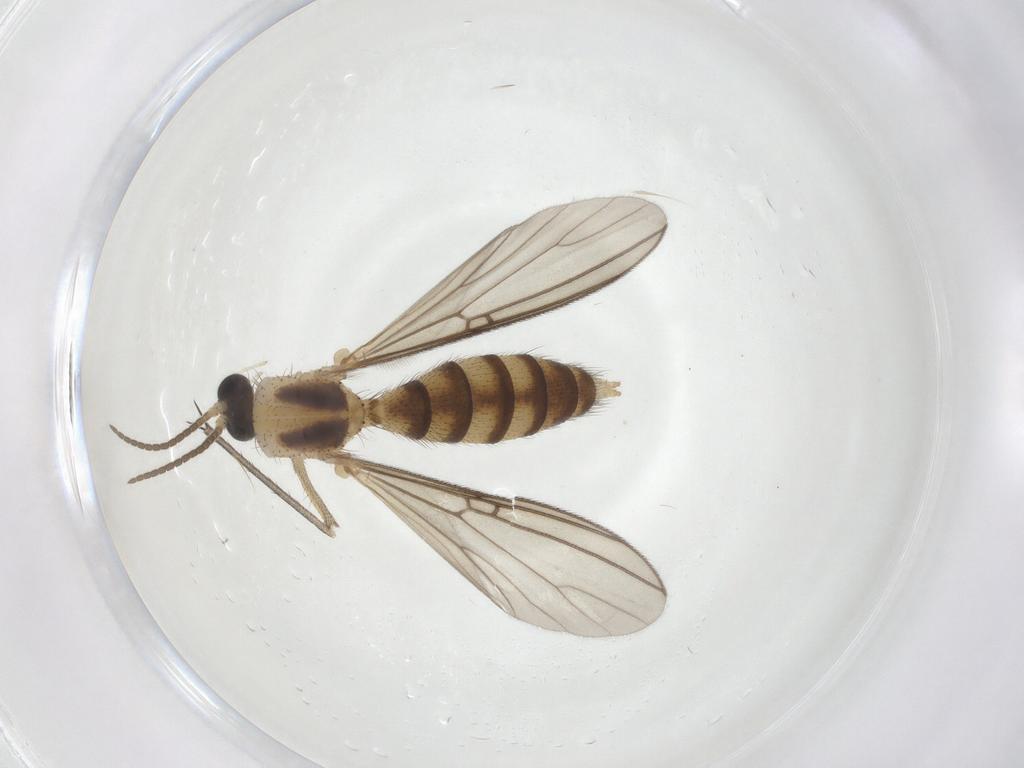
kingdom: Animalia
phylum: Arthropoda
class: Insecta
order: Diptera
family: Mycetophilidae
